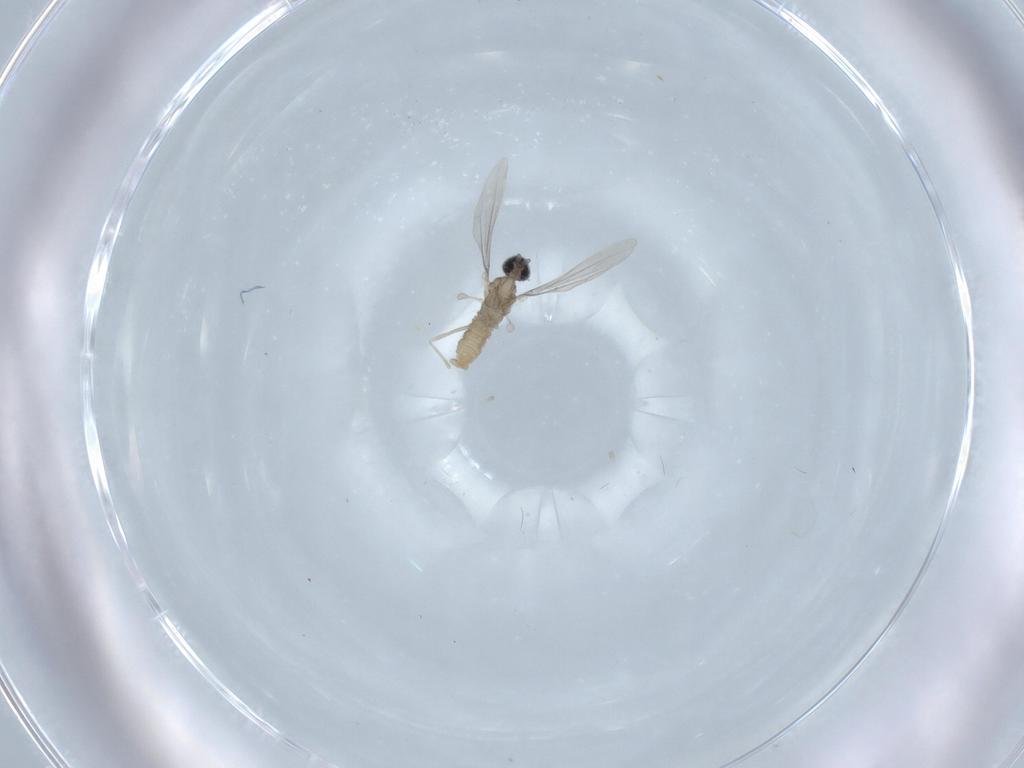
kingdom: Animalia
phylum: Arthropoda
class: Insecta
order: Diptera
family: Cecidomyiidae
